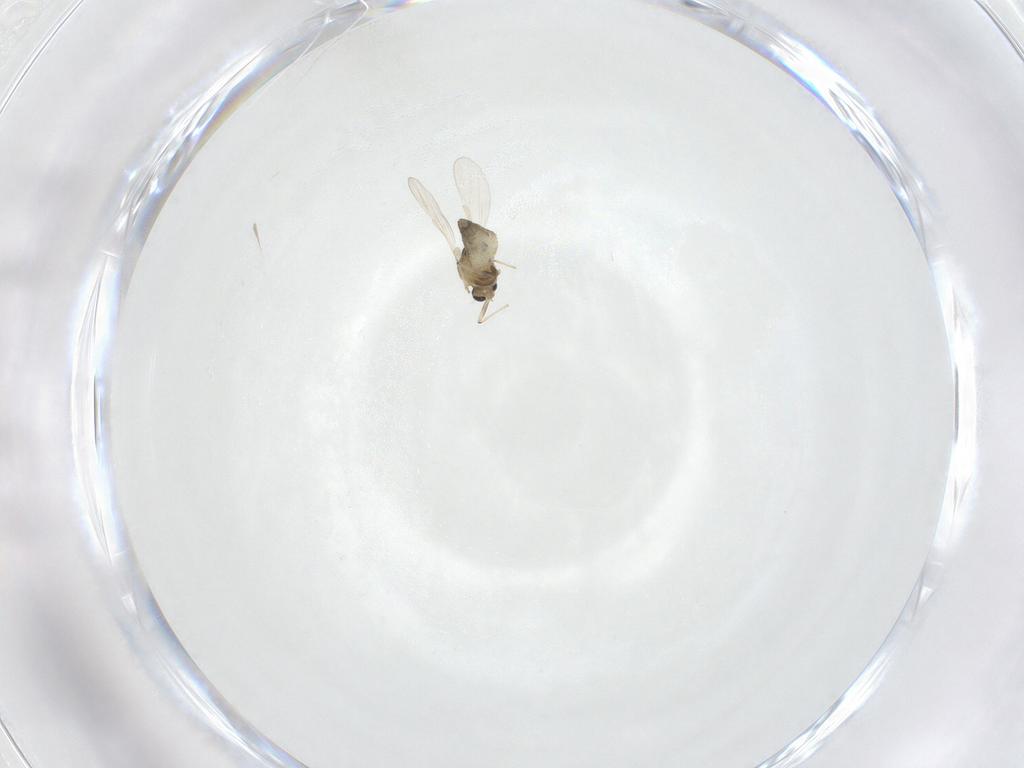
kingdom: Animalia
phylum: Arthropoda
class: Insecta
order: Diptera
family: Chironomidae
